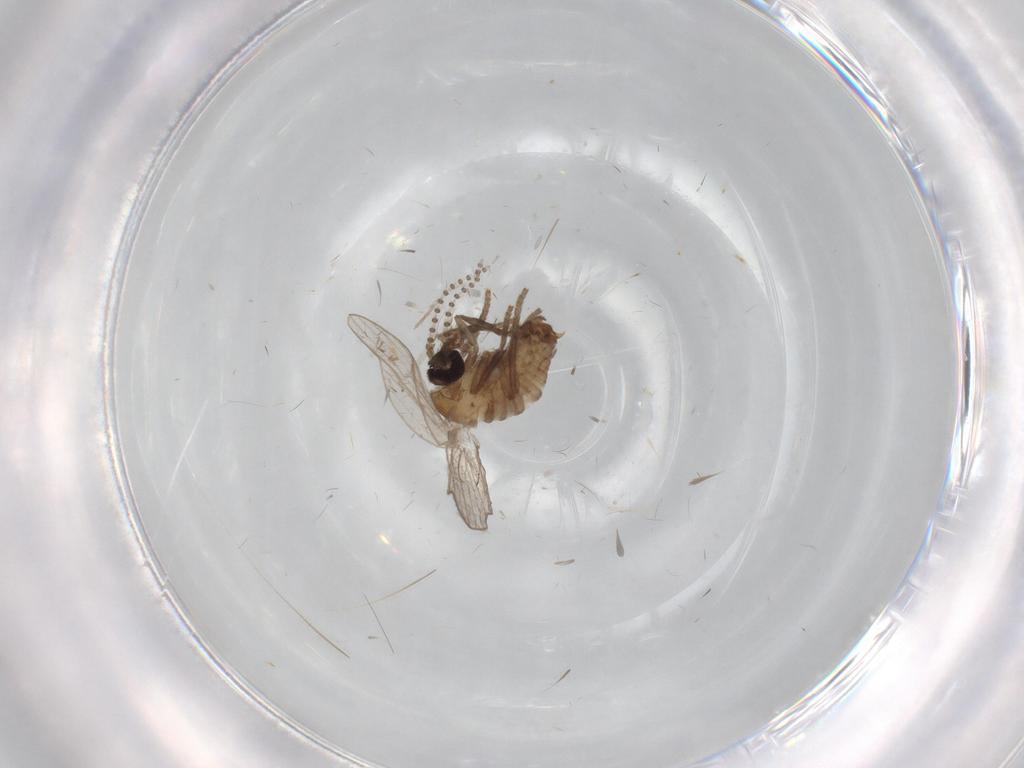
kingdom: Animalia
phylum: Arthropoda
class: Insecta
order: Diptera
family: Psychodidae
